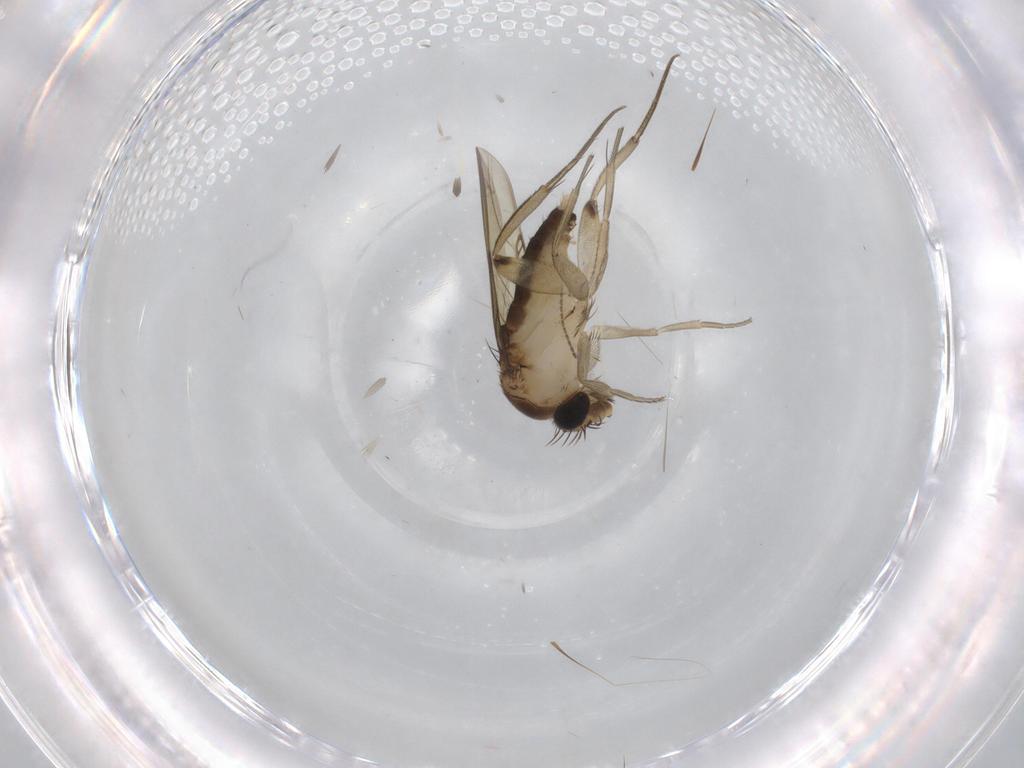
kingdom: Animalia
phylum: Arthropoda
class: Insecta
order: Diptera
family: Phoridae
